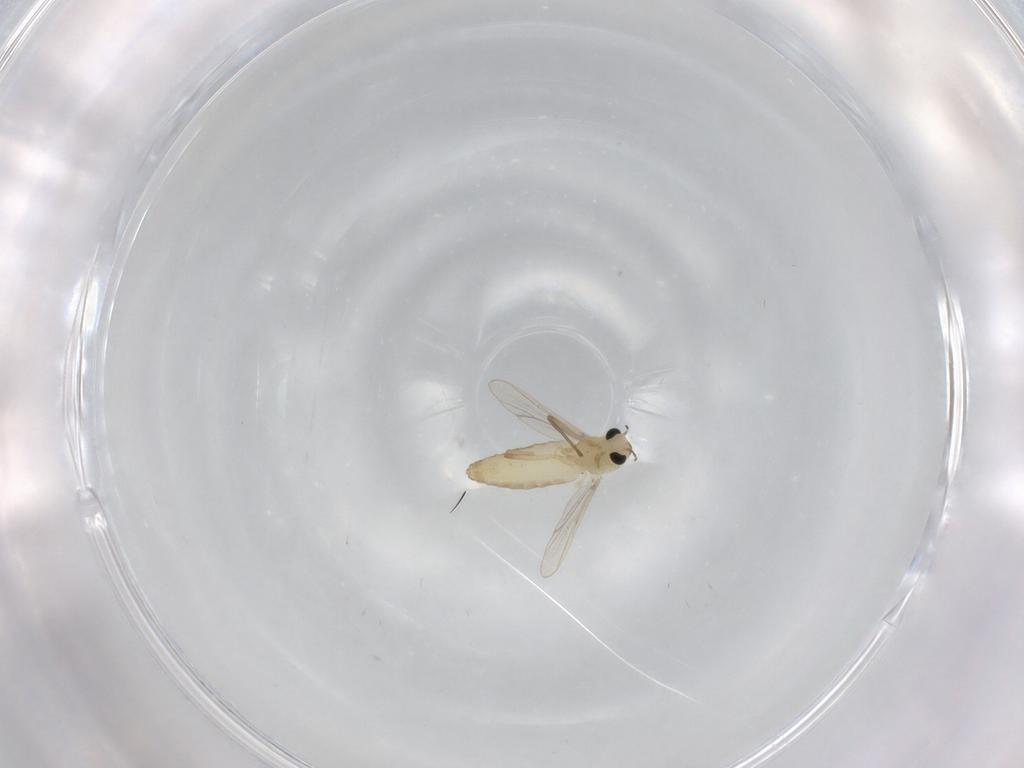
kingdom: Animalia
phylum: Arthropoda
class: Insecta
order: Diptera
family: Chironomidae
